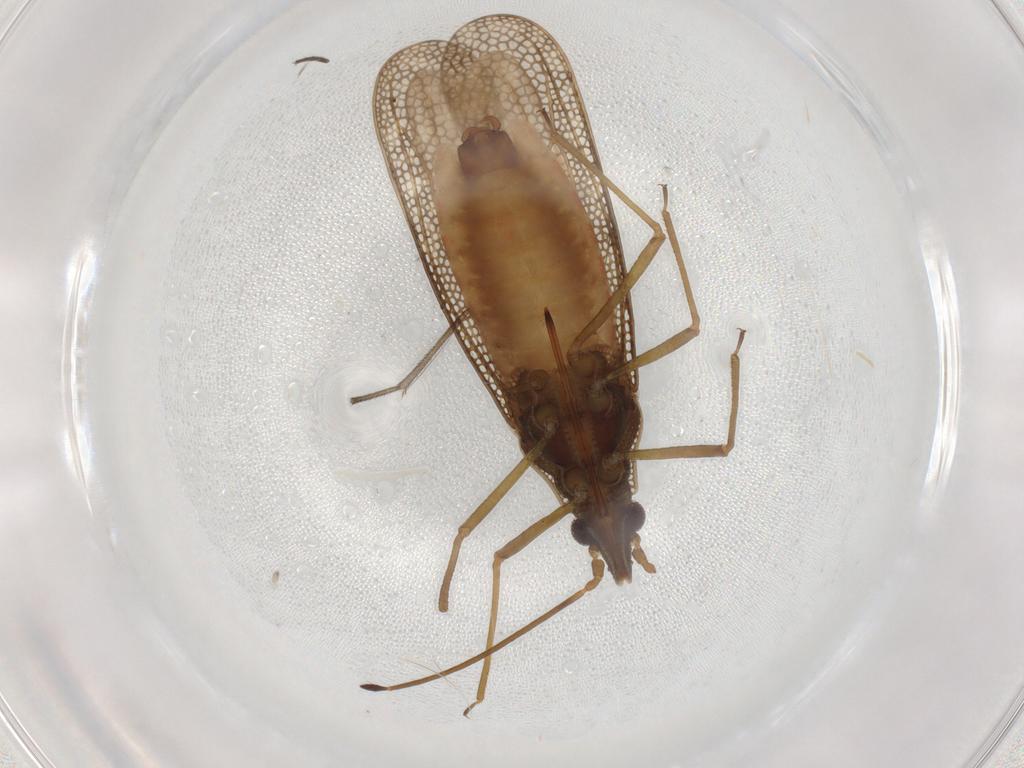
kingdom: Animalia
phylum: Arthropoda
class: Insecta
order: Hemiptera
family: Tingidae
